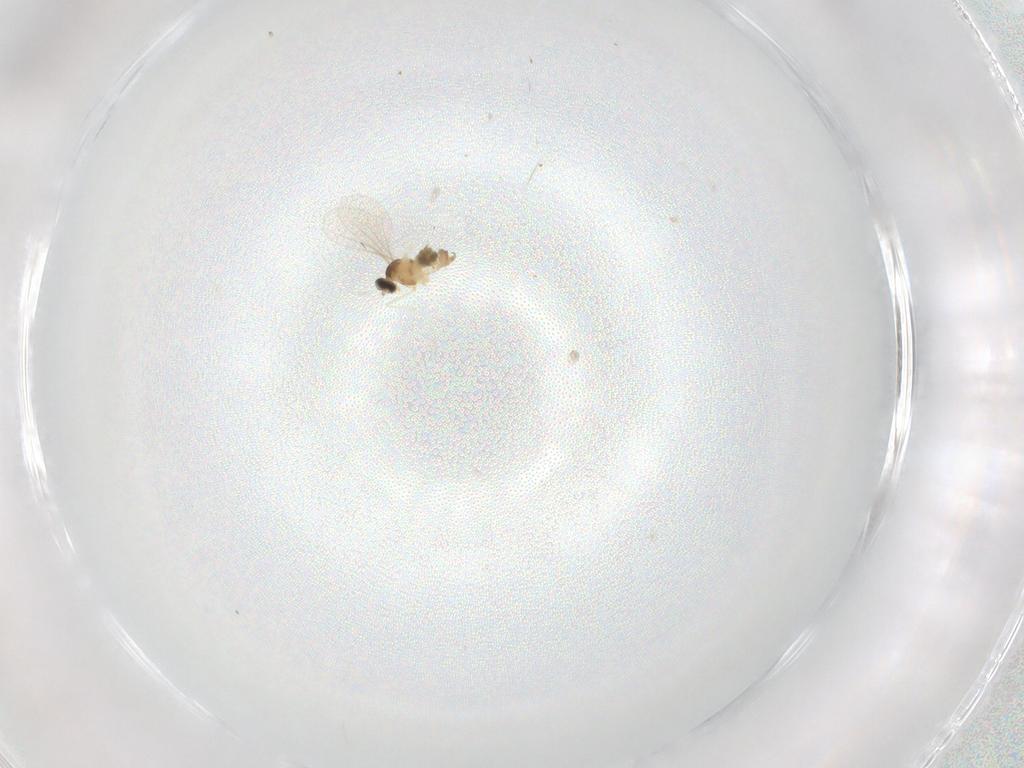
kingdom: Animalia
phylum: Arthropoda
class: Insecta
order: Diptera
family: Cecidomyiidae
